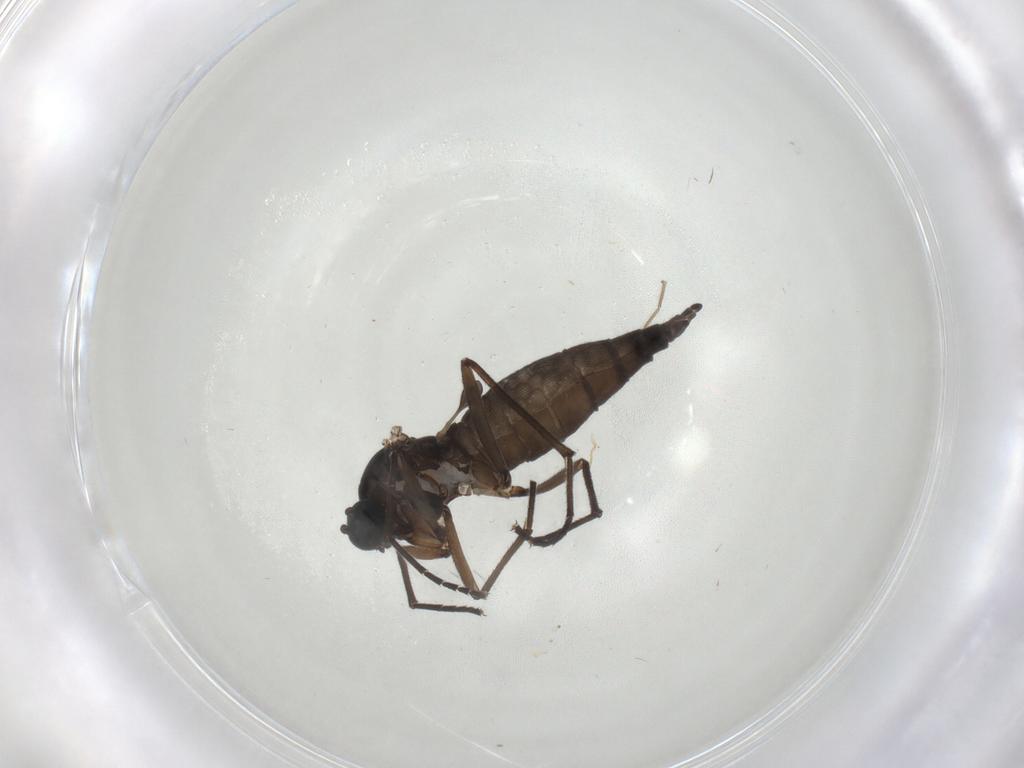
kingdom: Animalia
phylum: Arthropoda
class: Insecta
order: Diptera
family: Sciaridae
